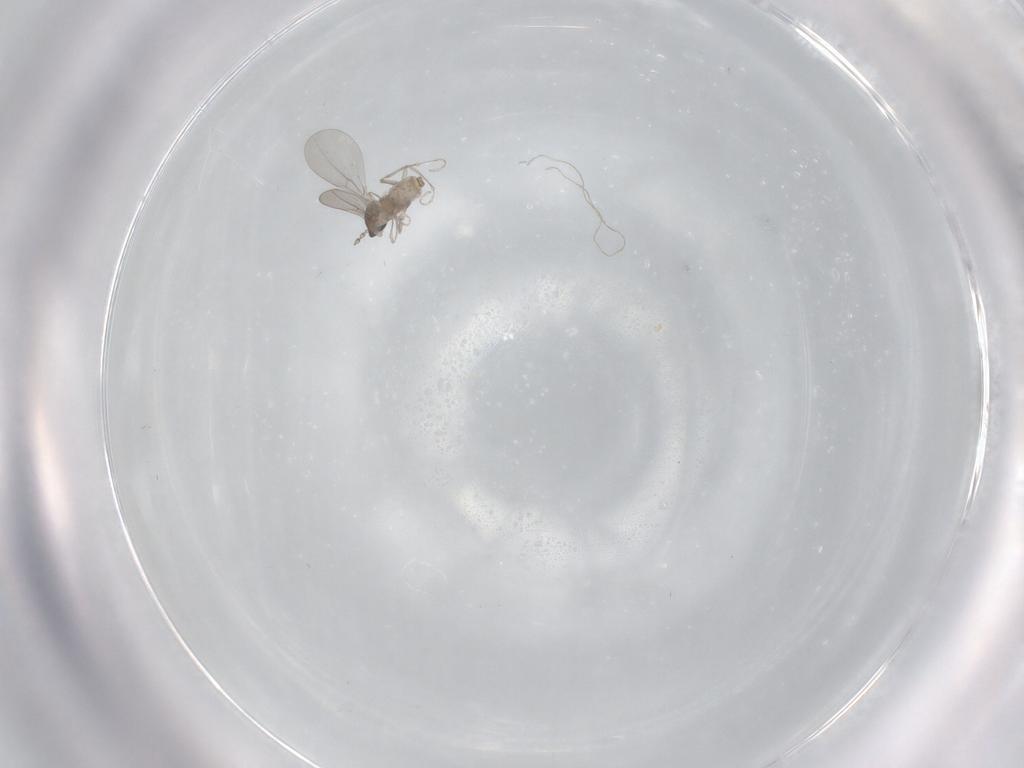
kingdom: Animalia
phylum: Arthropoda
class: Insecta
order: Diptera
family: Cecidomyiidae
